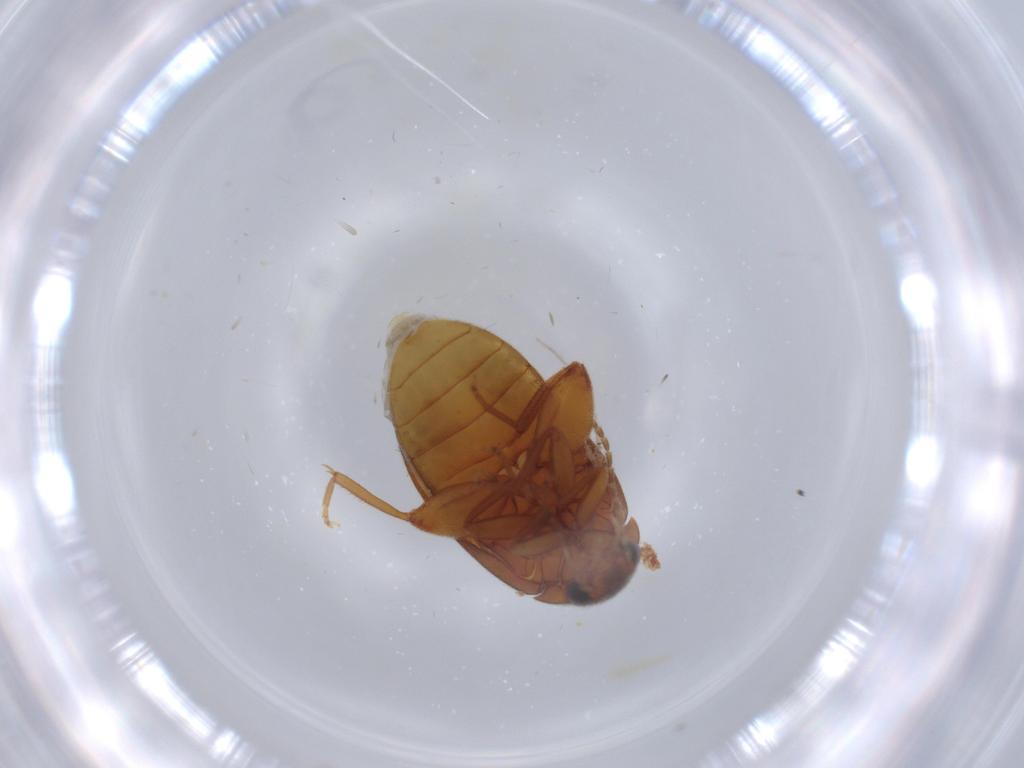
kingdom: Animalia
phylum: Arthropoda
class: Insecta
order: Coleoptera
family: Scirtidae
